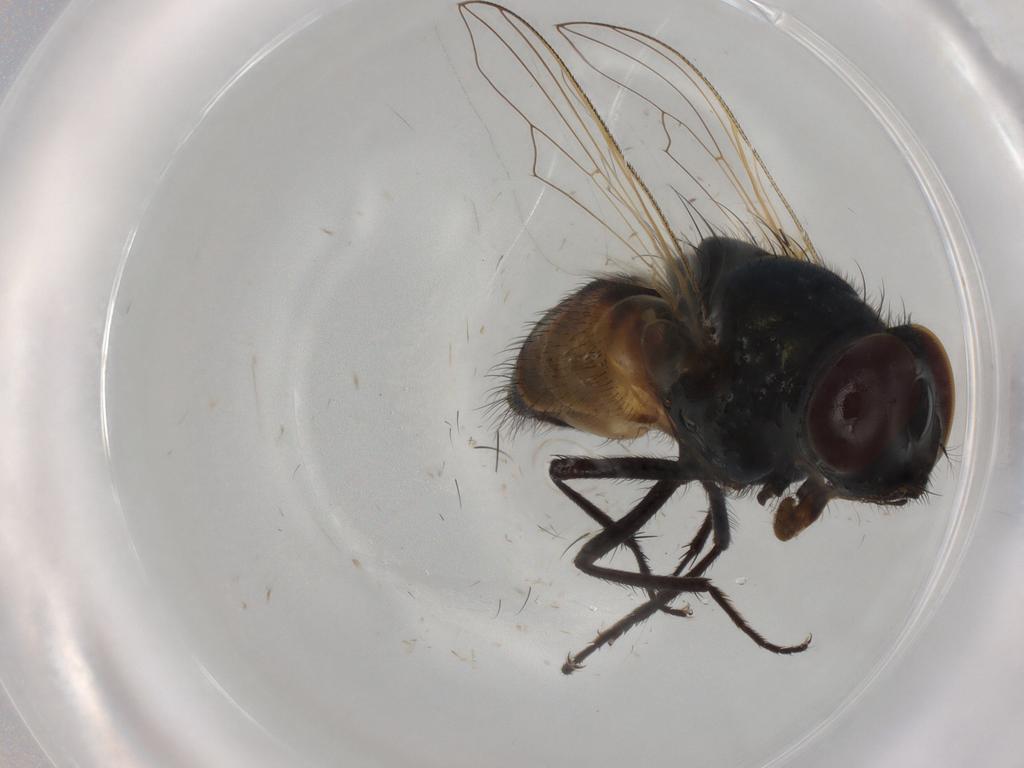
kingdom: Animalia
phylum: Arthropoda
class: Insecta
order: Diptera
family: Muscidae
